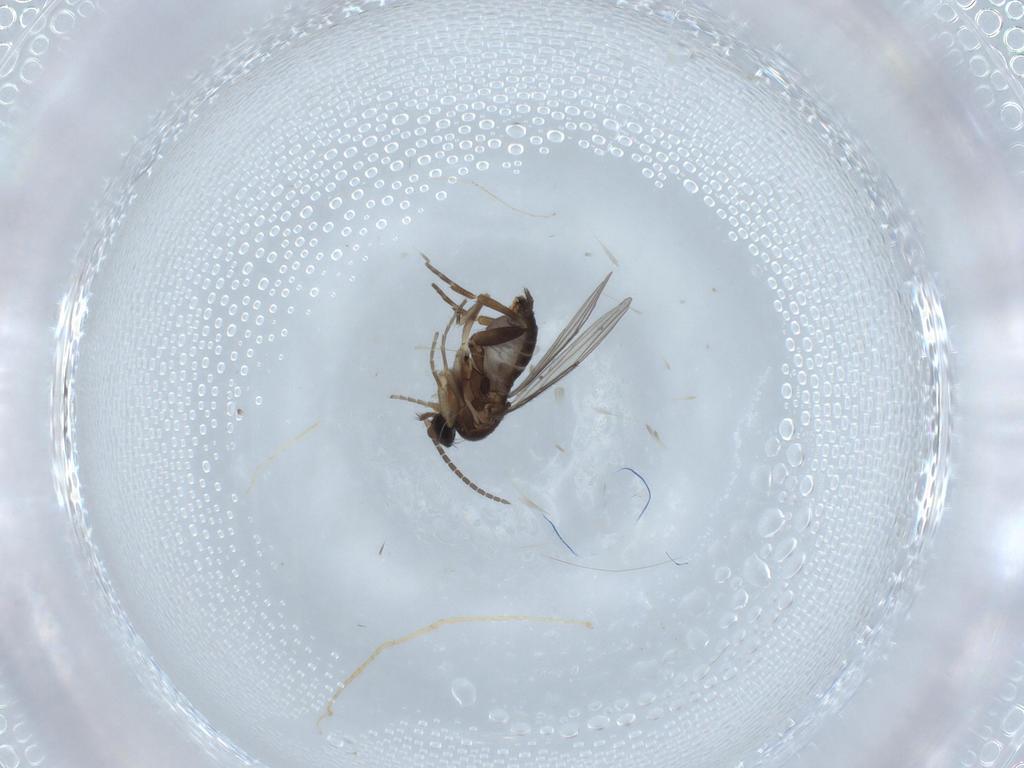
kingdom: Animalia
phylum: Arthropoda
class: Insecta
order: Diptera
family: Phoridae
